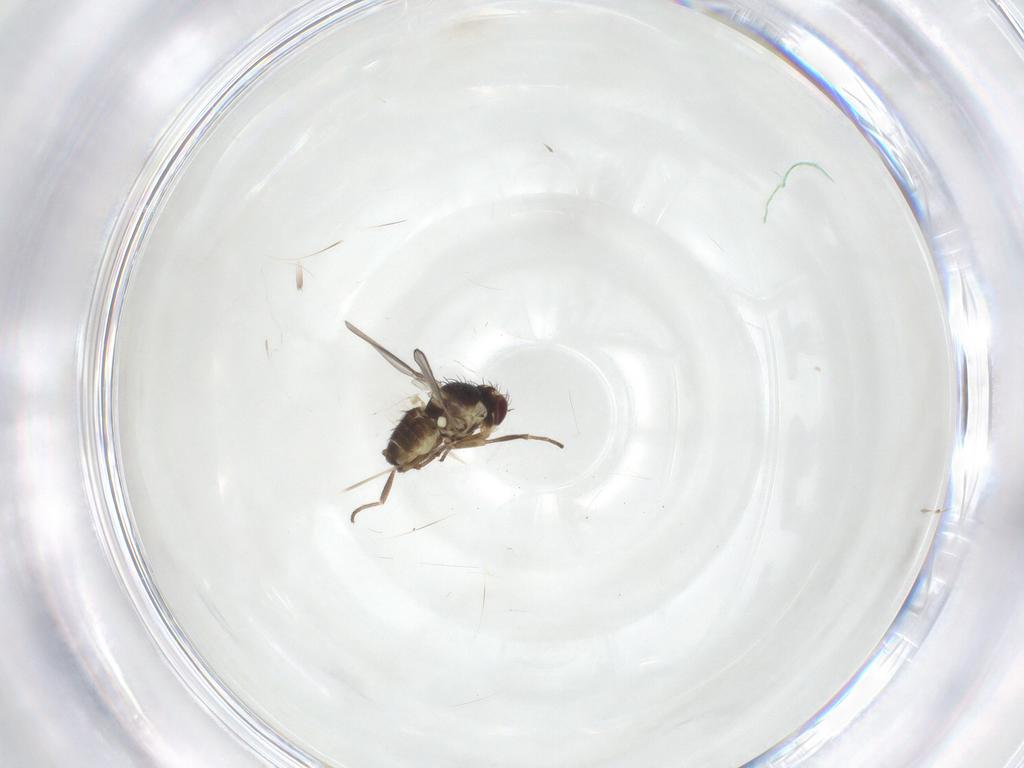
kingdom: Animalia
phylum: Arthropoda
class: Insecta
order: Diptera
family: Agromyzidae
